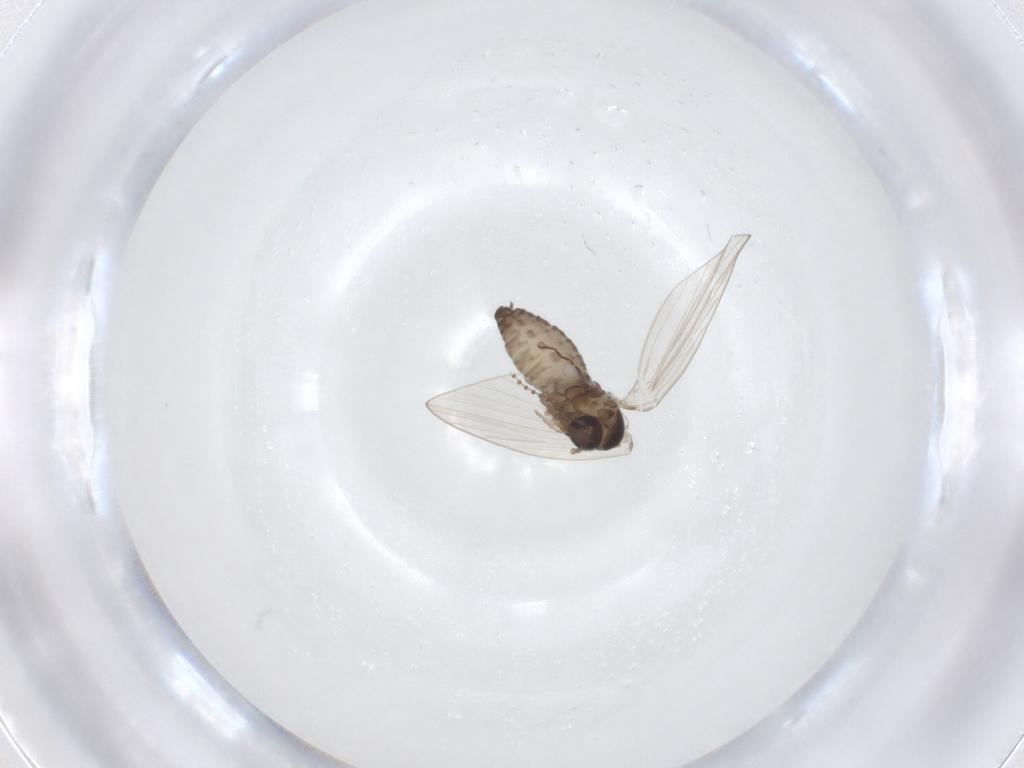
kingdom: Animalia
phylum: Arthropoda
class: Insecta
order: Diptera
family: Psychodidae
